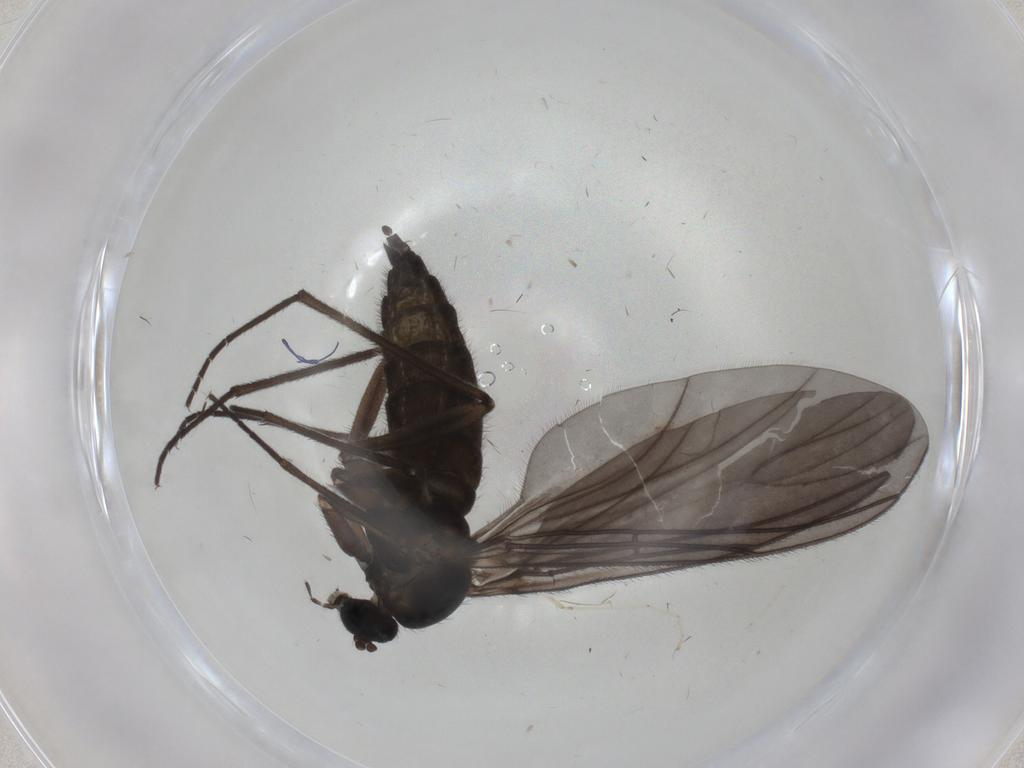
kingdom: Animalia
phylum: Arthropoda
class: Insecta
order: Diptera
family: Sciaridae
